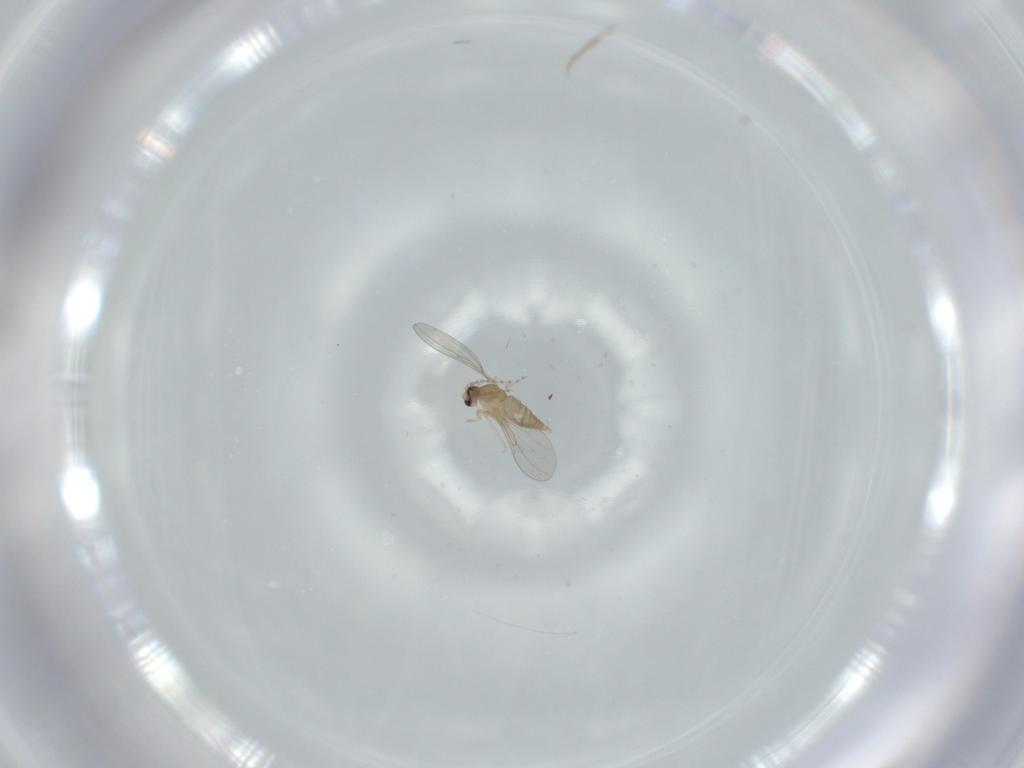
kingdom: Animalia
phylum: Arthropoda
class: Insecta
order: Diptera
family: Cecidomyiidae
